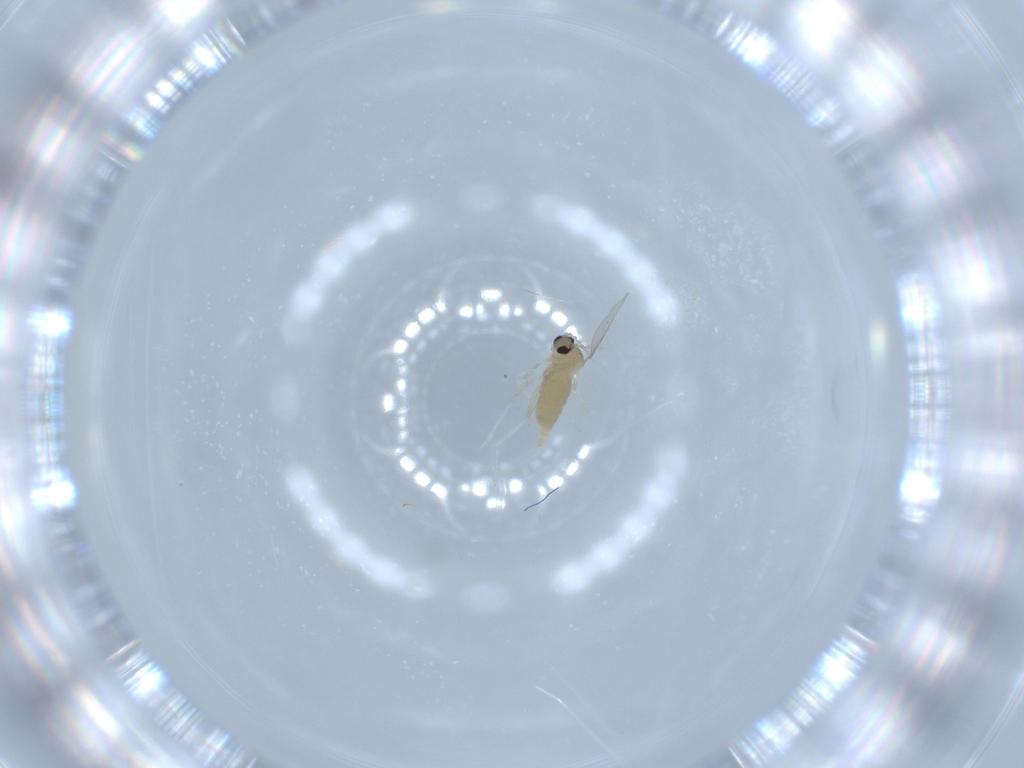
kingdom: Animalia
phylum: Arthropoda
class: Insecta
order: Diptera
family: Cecidomyiidae
